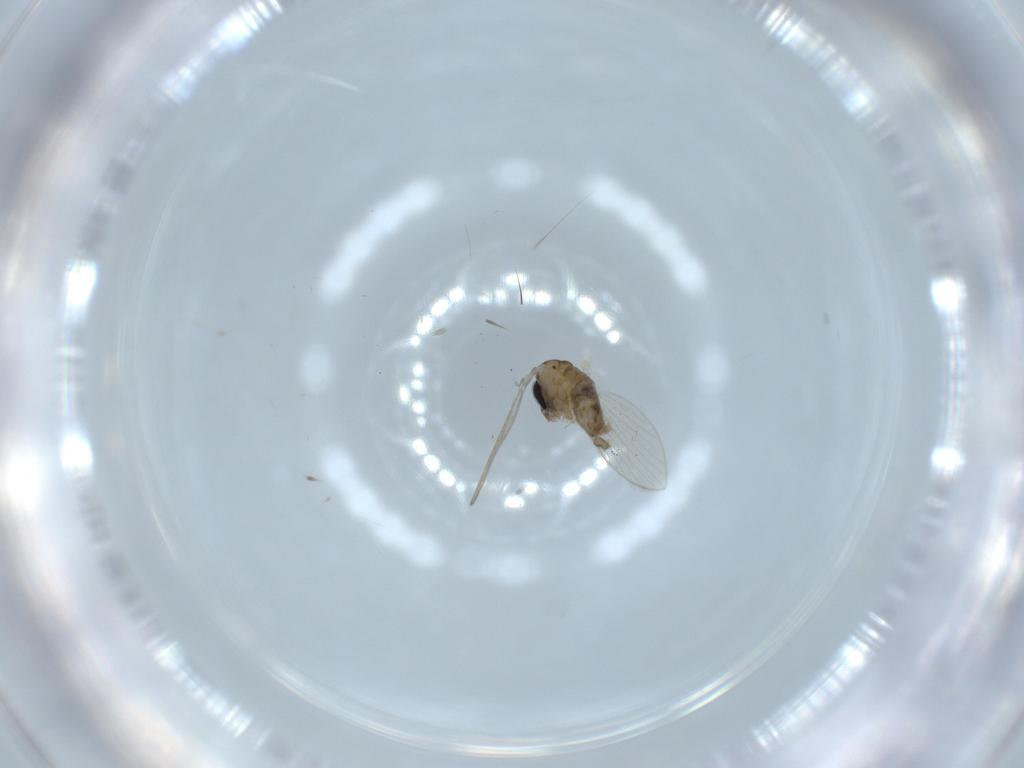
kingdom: Animalia
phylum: Arthropoda
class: Insecta
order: Diptera
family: Psychodidae
